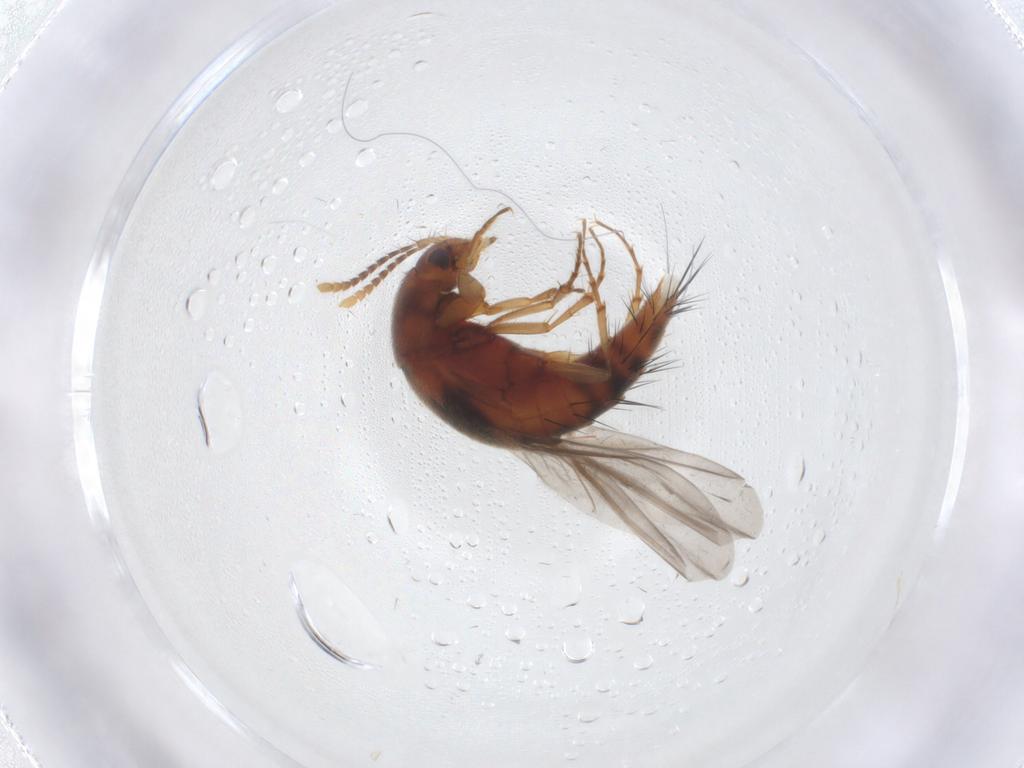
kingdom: Animalia
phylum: Arthropoda
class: Insecta
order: Coleoptera
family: Staphylinidae
